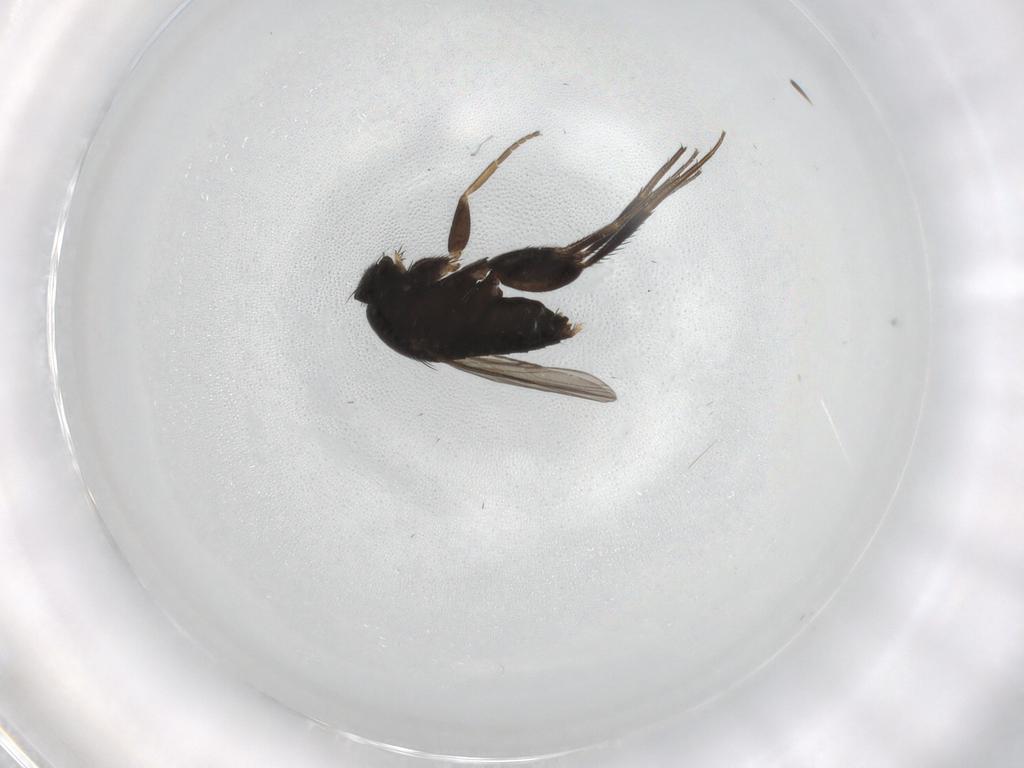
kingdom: Animalia
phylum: Arthropoda
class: Insecta
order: Diptera
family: Phoridae
